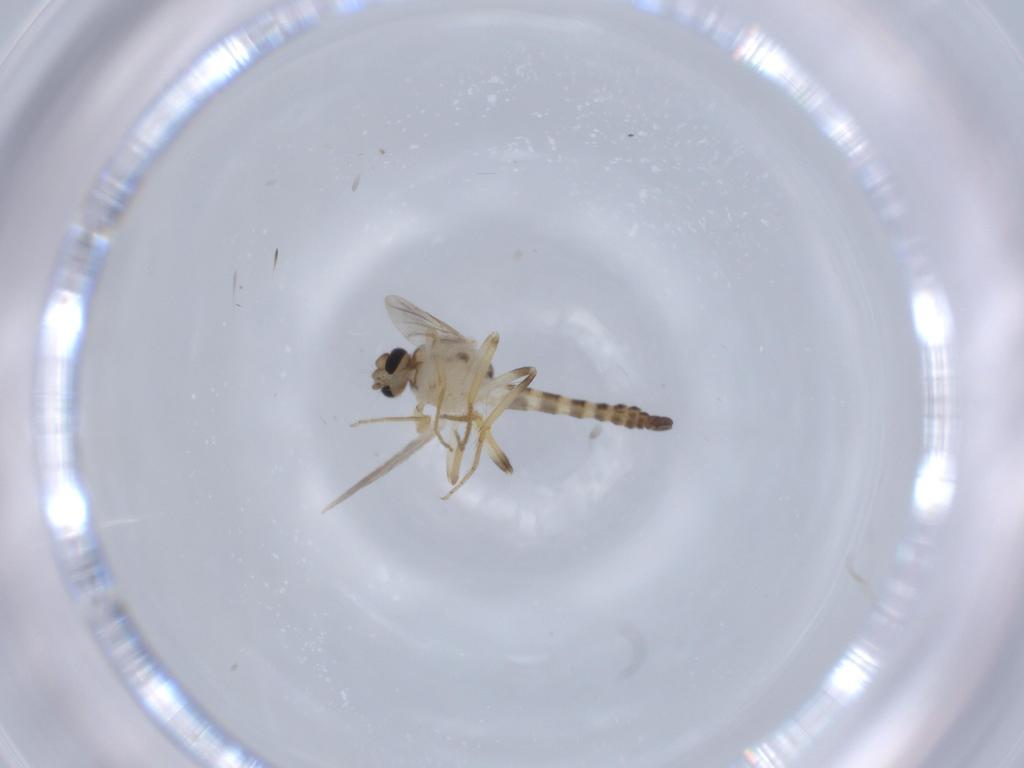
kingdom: Animalia
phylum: Arthropoda
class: Insecta
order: Diptera
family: Ceratopogonidae
